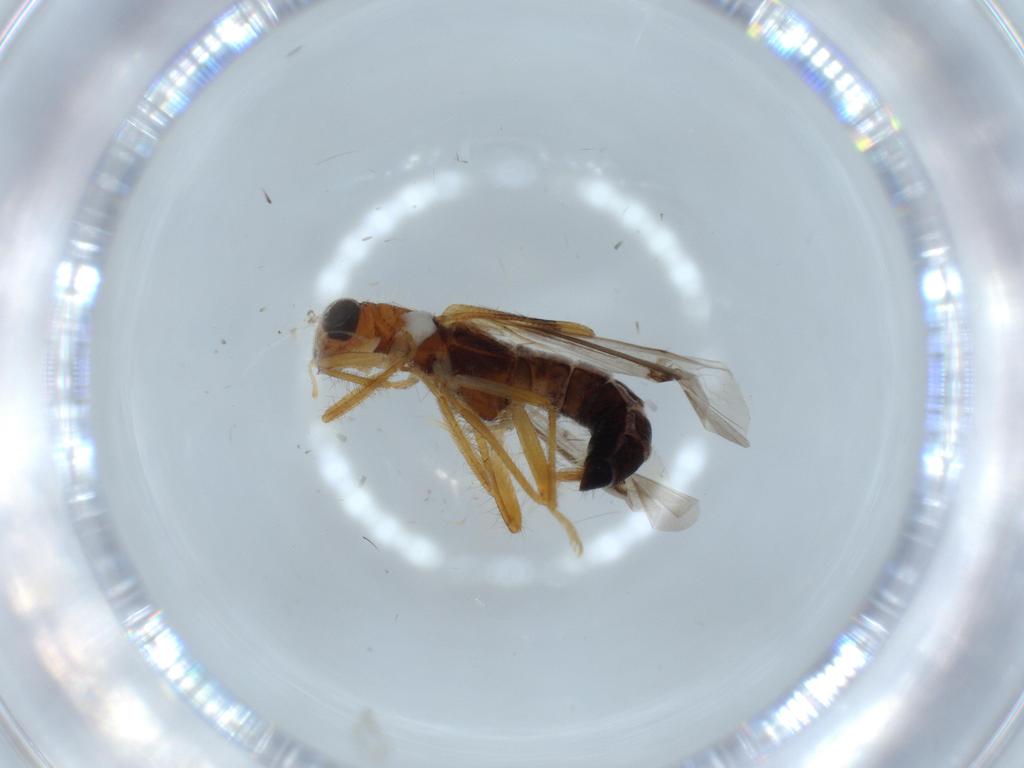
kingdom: Animalia
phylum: Arthropoda
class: Insecta
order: Coleoptera
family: Cleridae
